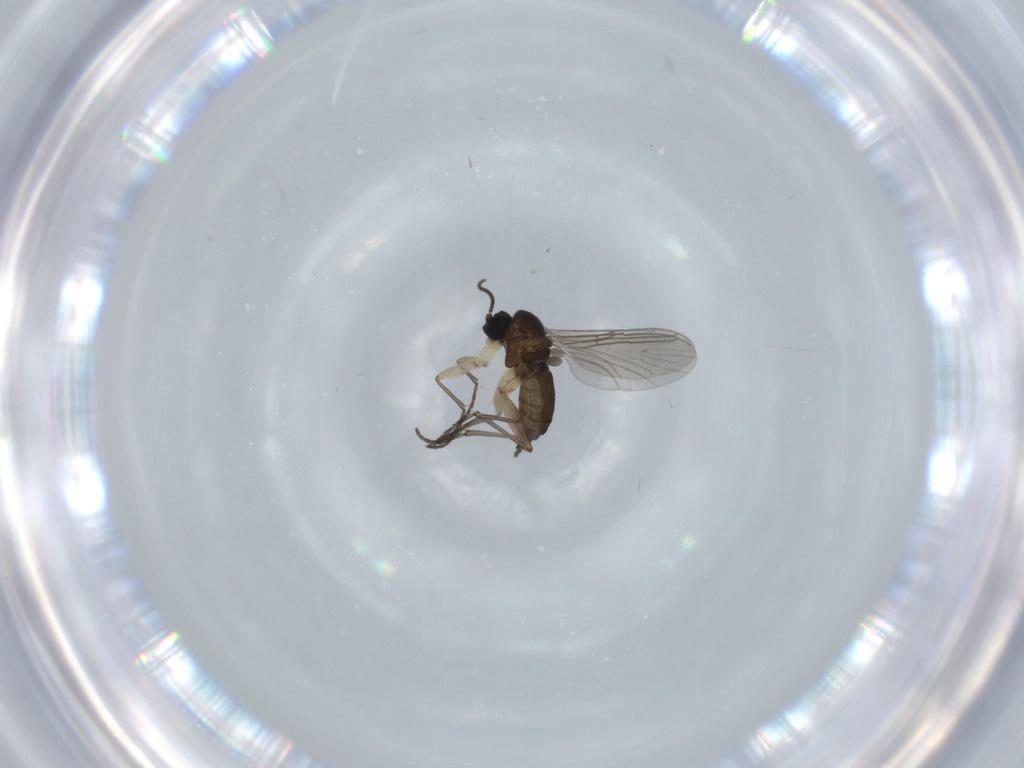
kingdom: Animalia
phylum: Arthropoda
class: Insecta
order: Diptera
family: Sciaridae
